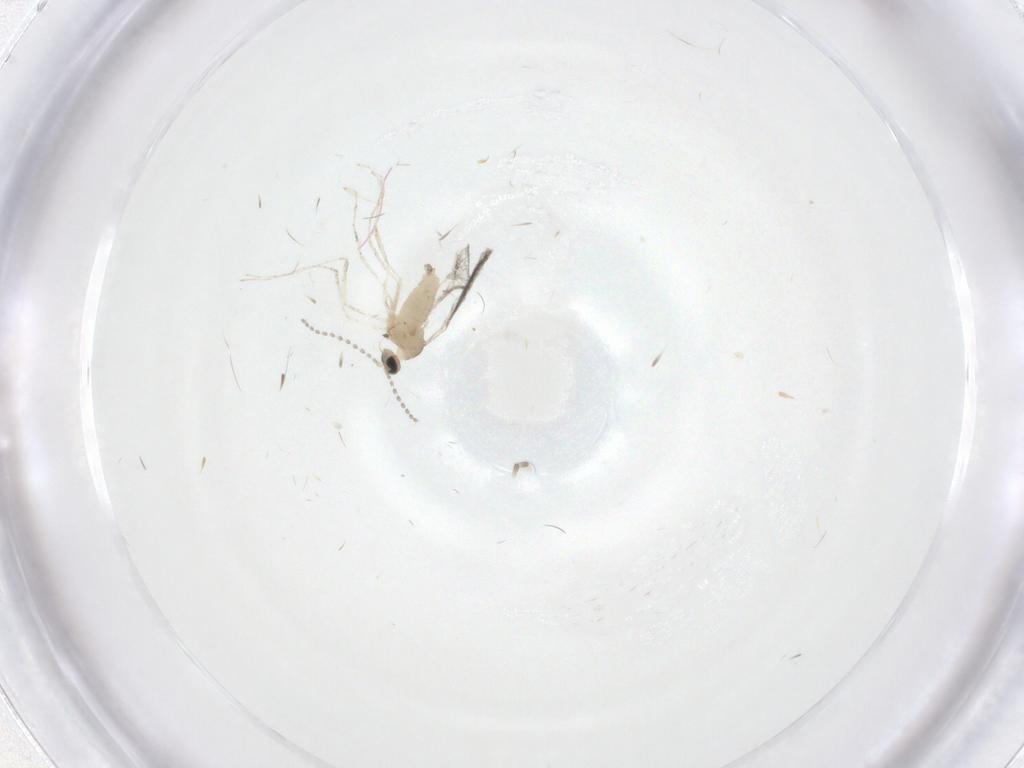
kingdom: Animalia
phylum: Arthropoda
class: Insecta
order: Diptera
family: Cecidomyiidae
